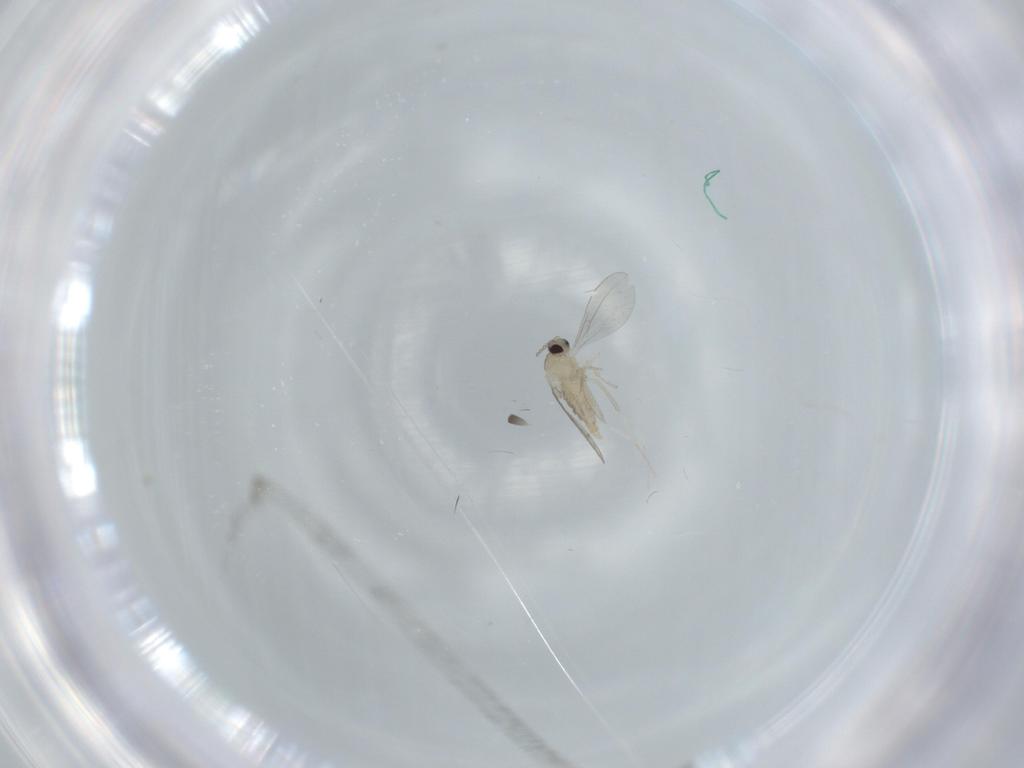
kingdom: Animalia
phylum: Arthropoda
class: Insecta
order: Diptera
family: Cecidomyiidae
